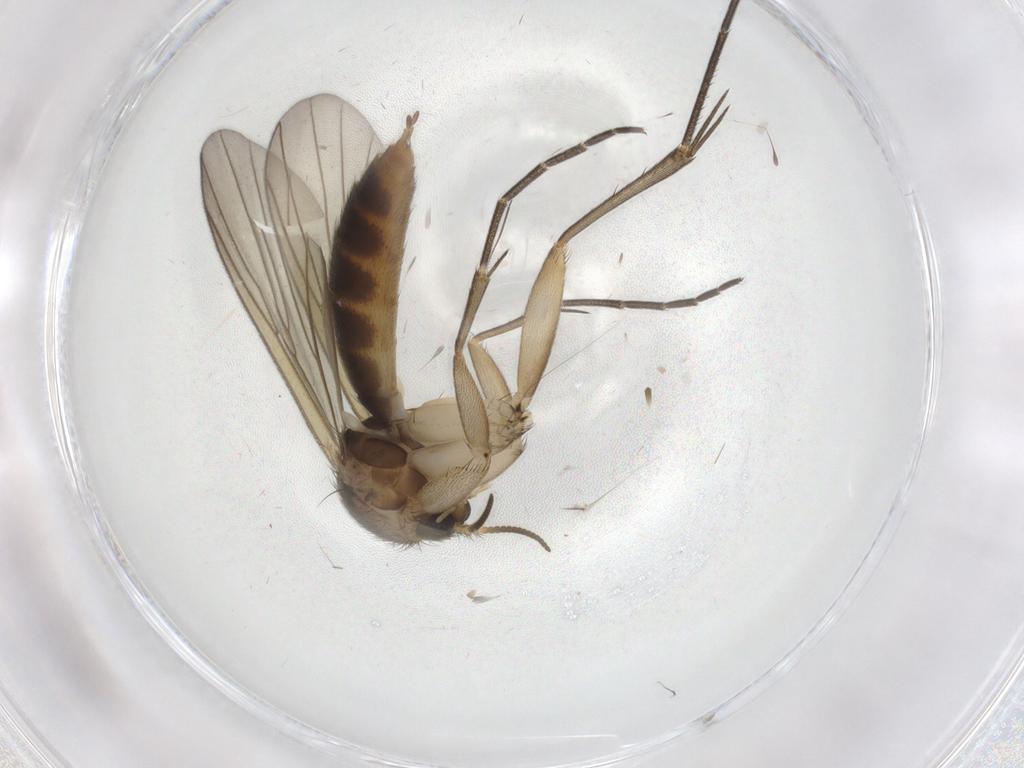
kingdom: Animalia
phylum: Arthropoda
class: Insecta
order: Diptera
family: Mycetophilidae
